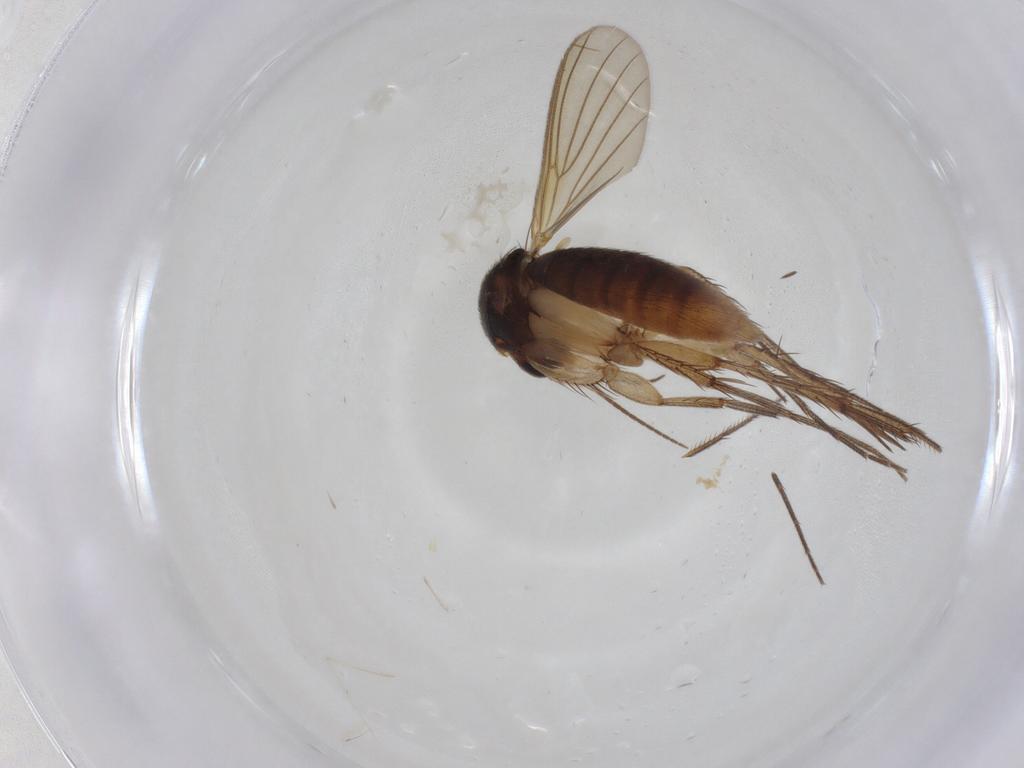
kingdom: Animalia
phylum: Arthropoda
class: Insecta
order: Diptera
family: Mycetophilidae
